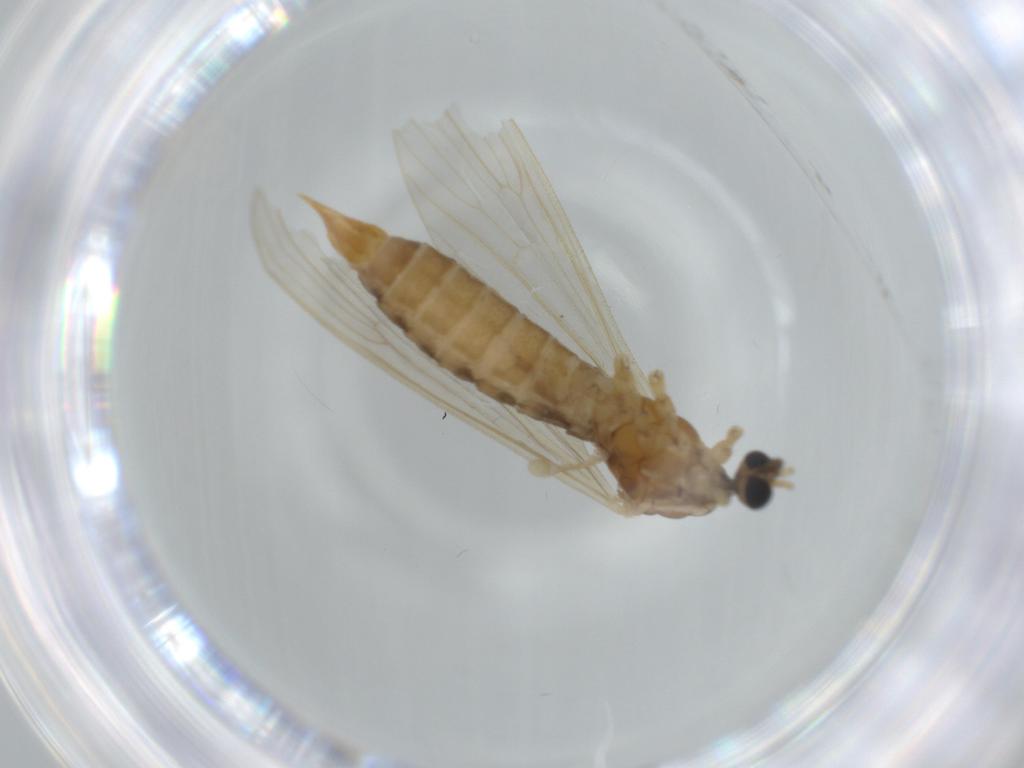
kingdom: Animalia
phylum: Arthropoda
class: Insecta
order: Diptera
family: Limoniidae
